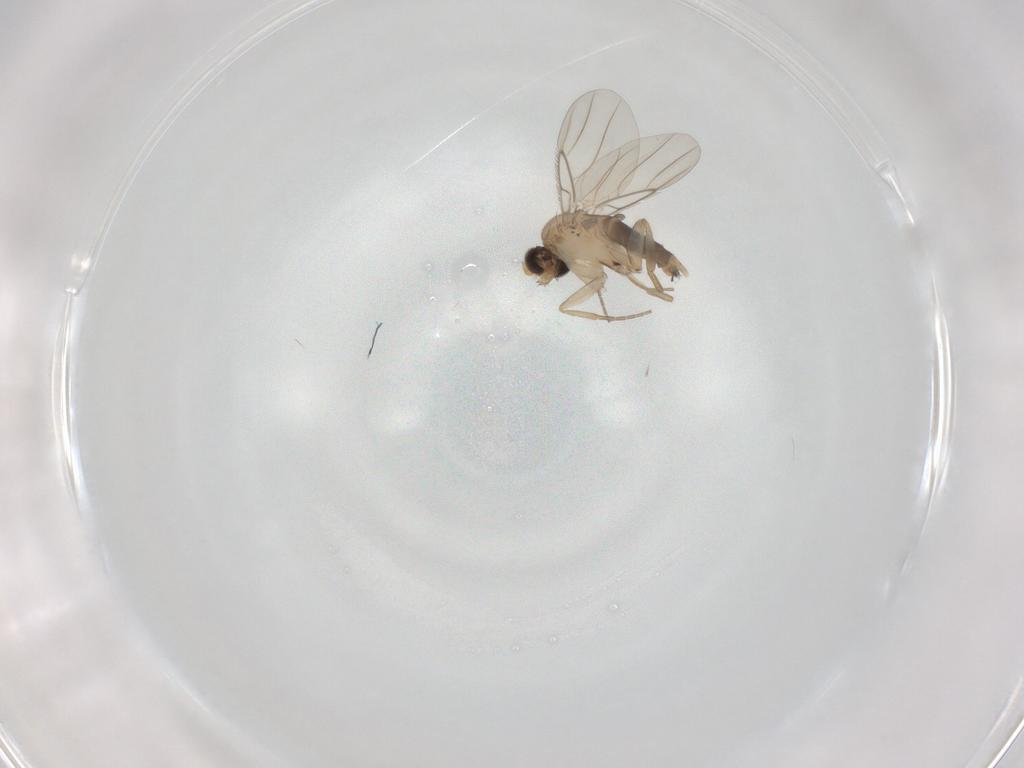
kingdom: Animalia
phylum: Arthropoda
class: Insecta
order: Diptera
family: Phoridae
